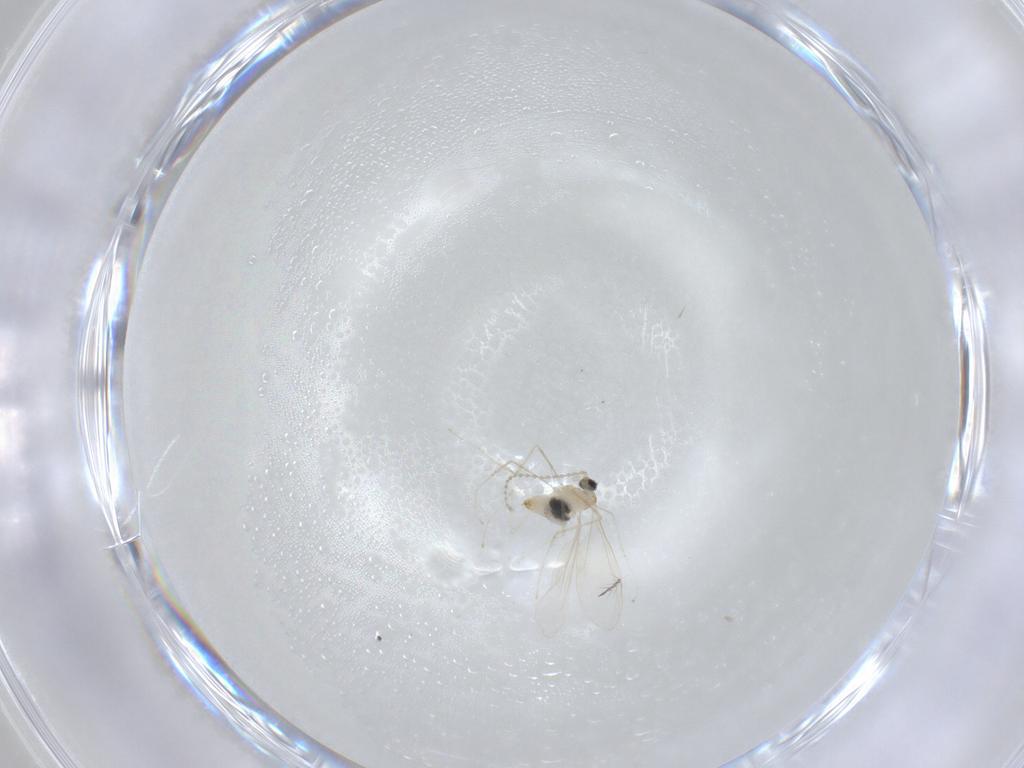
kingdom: Animalia
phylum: Arthropoda
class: Insecta
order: Diptera
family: Cecidomyiidae
